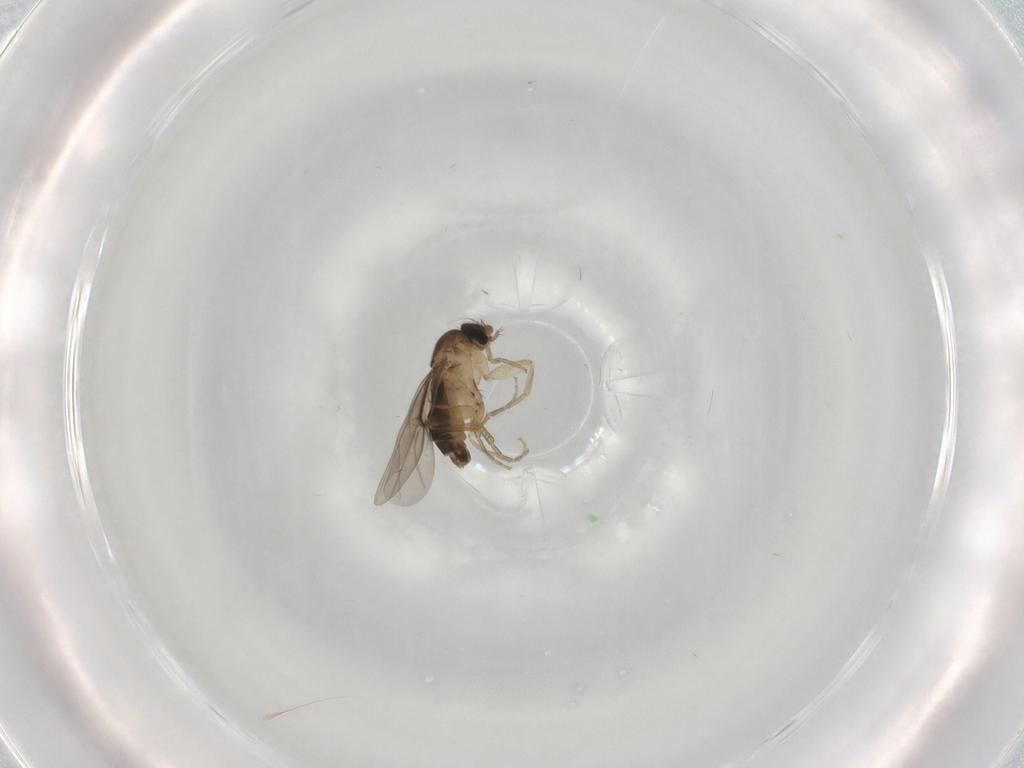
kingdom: Animalia
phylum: Arthropoda
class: Insecta
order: Diptera
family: Phoridae
